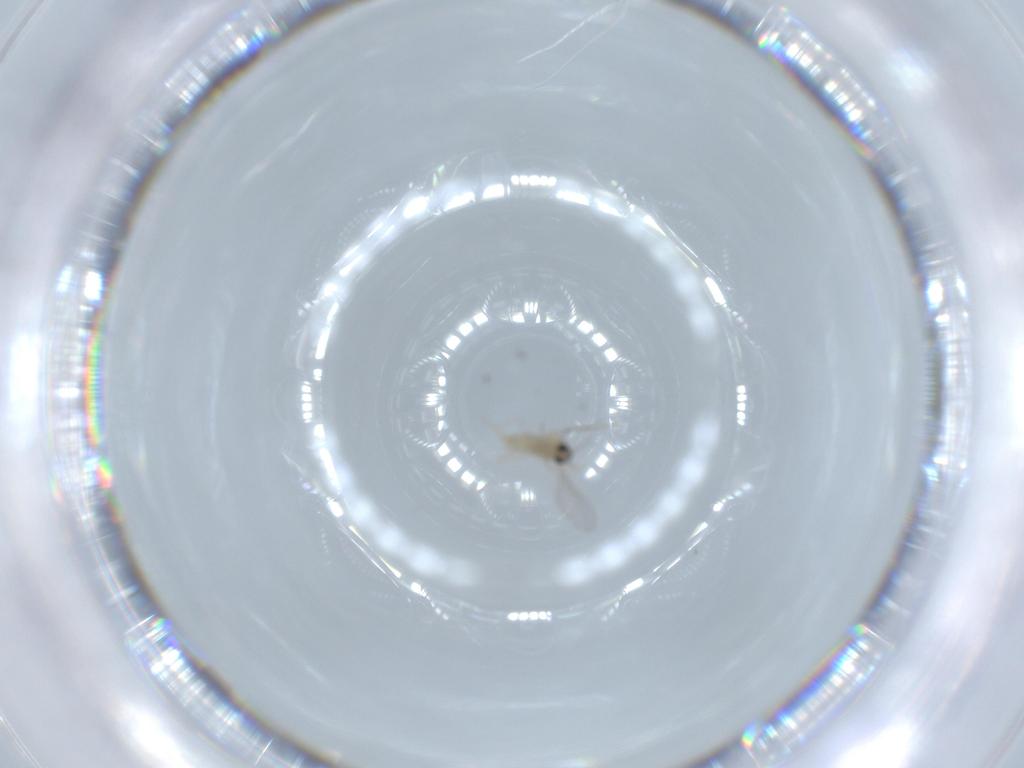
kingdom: Animalia
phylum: Arthropoda
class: Insecta
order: Diptera
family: Cecidomyiidae
